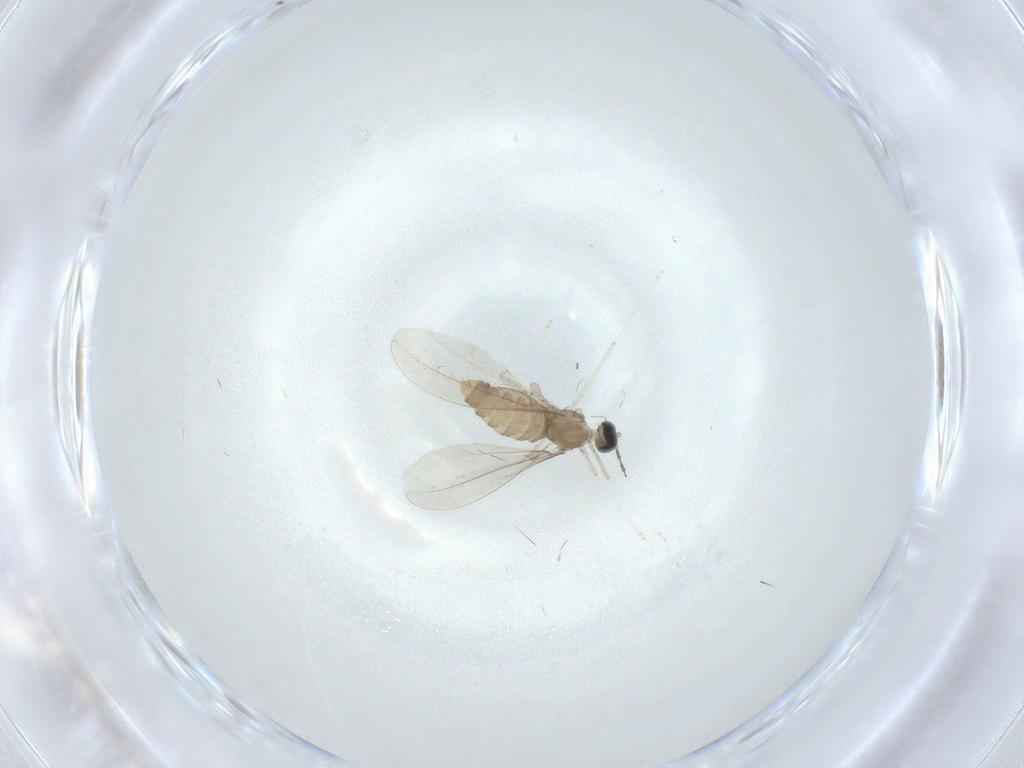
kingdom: Animalia
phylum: Arthropoda
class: Insecta
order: Diptera
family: Cecidomyiidae
